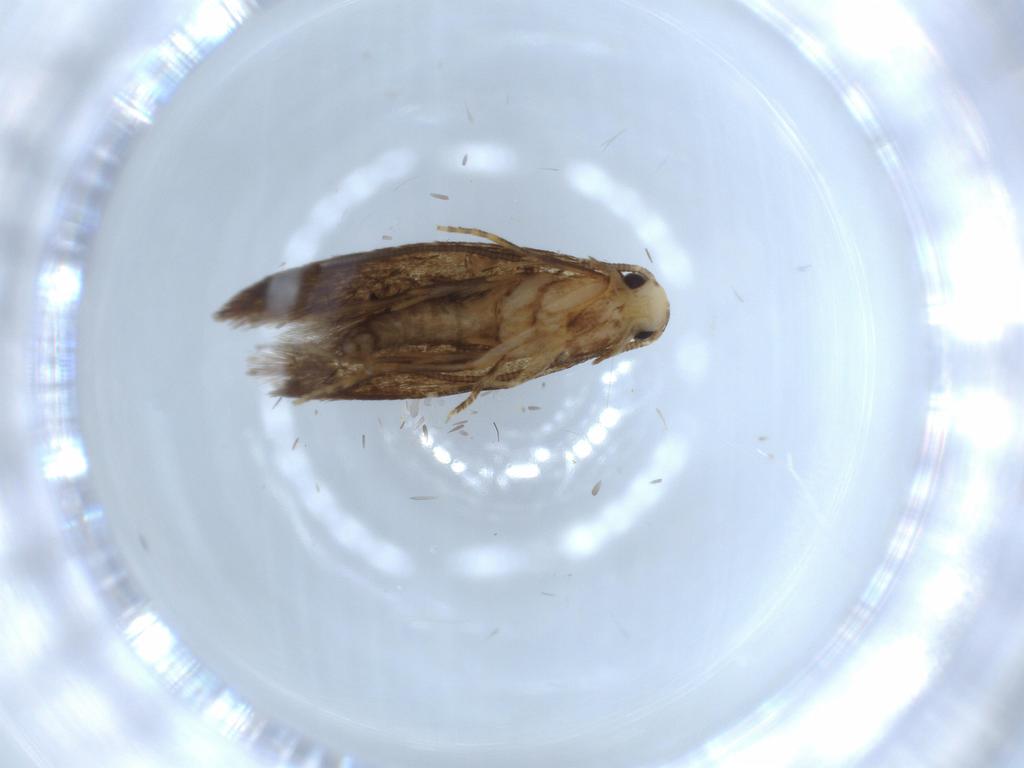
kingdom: Animalia
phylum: Arthropoda
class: Insecta
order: Lepidoptera
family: Tineidae
